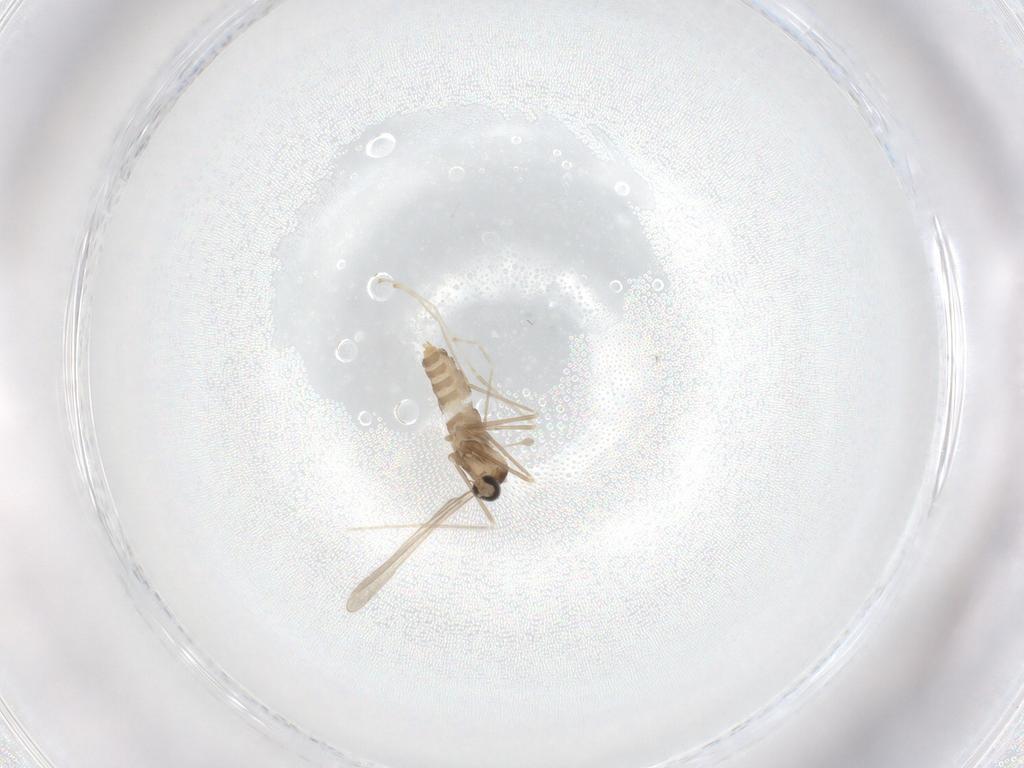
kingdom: Animalia
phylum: Arthropoda
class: Insecta
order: Diptera
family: Cecidomyiidae
